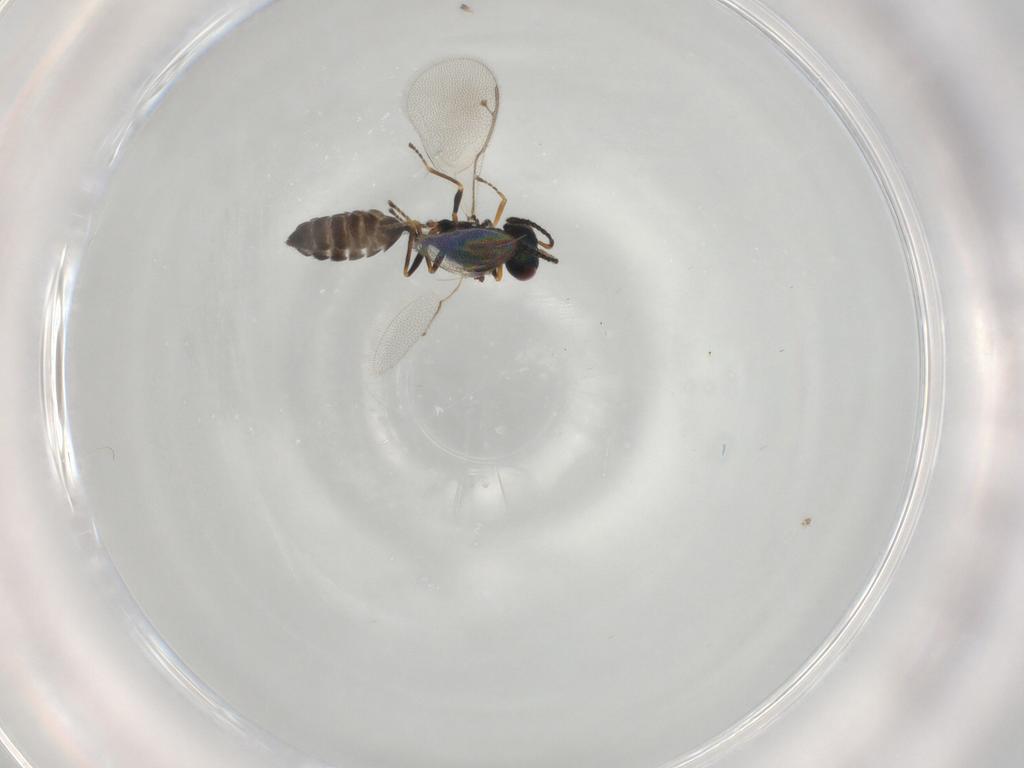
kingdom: Animalia
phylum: Arthropoda
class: Insecta
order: Hymenoptera
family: Pteromalidae
